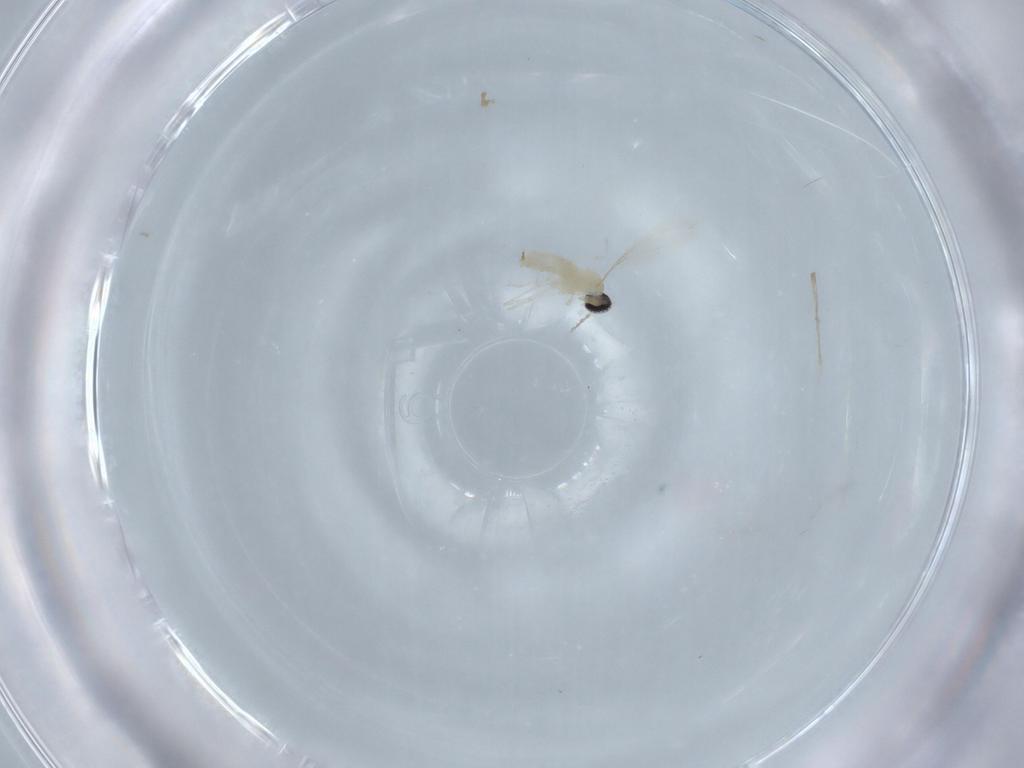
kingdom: Animalia
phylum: Arthropoda
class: Insecta
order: Diptera
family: Cecidomyiidae
